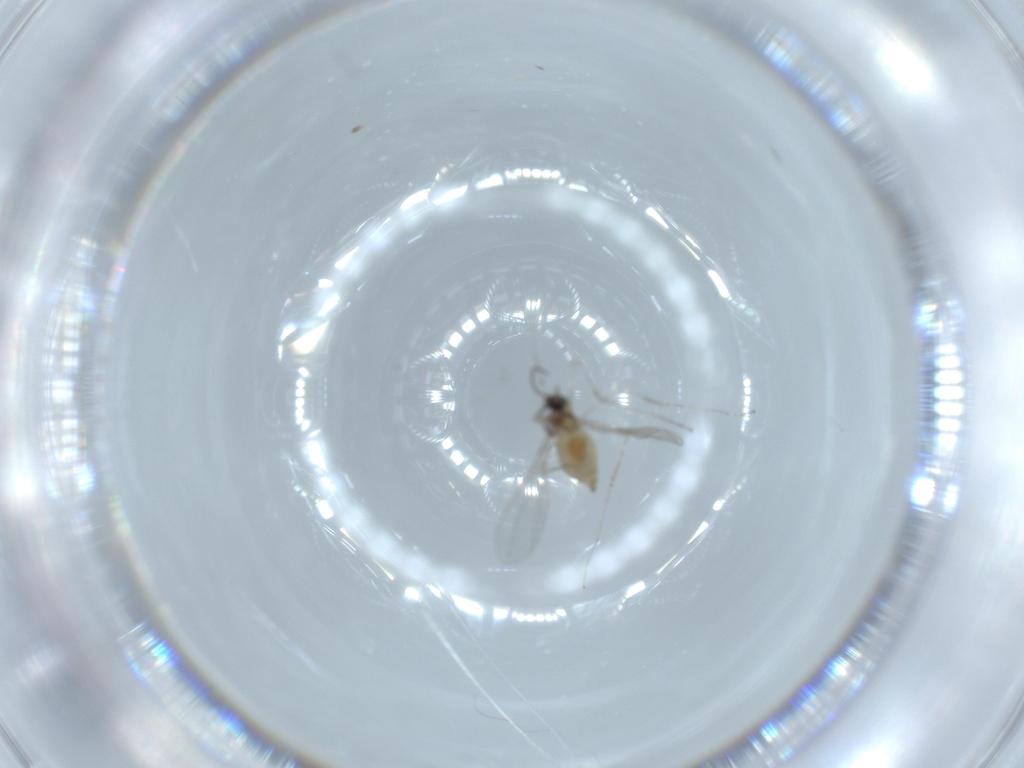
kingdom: Animalia
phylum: Arthropoda
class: Insecta
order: Diptera
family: Cecidomyiidae
